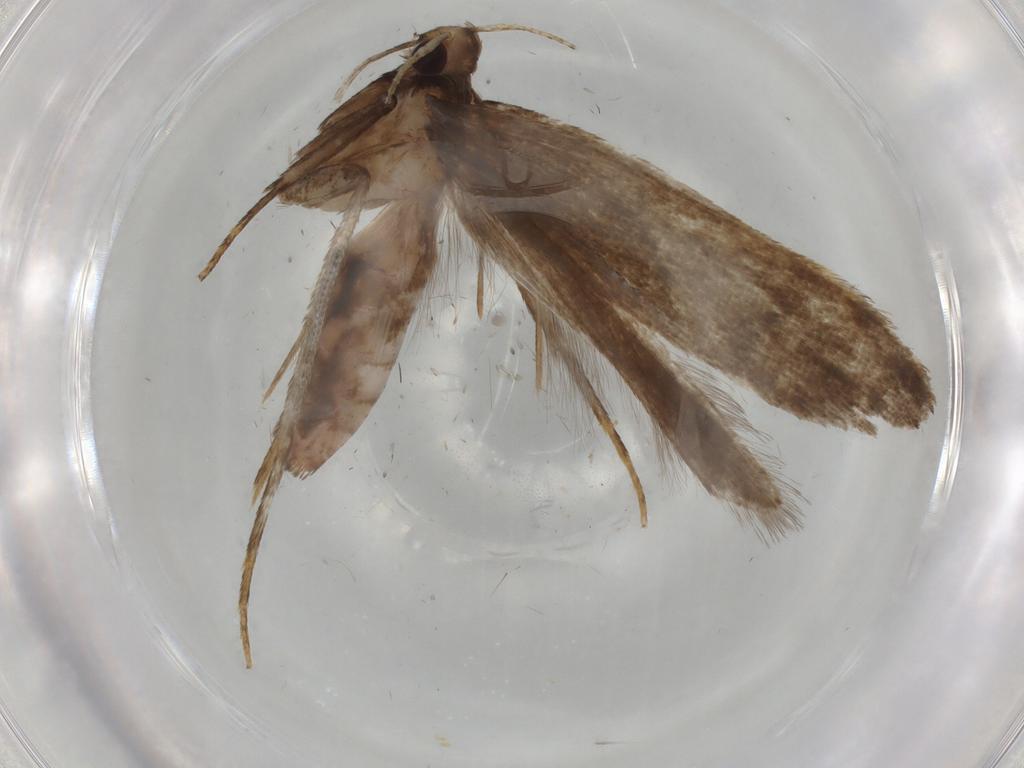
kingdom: Animalia
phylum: Arthropoda
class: Insecta
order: Lepidoptera
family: Gelechiidae
